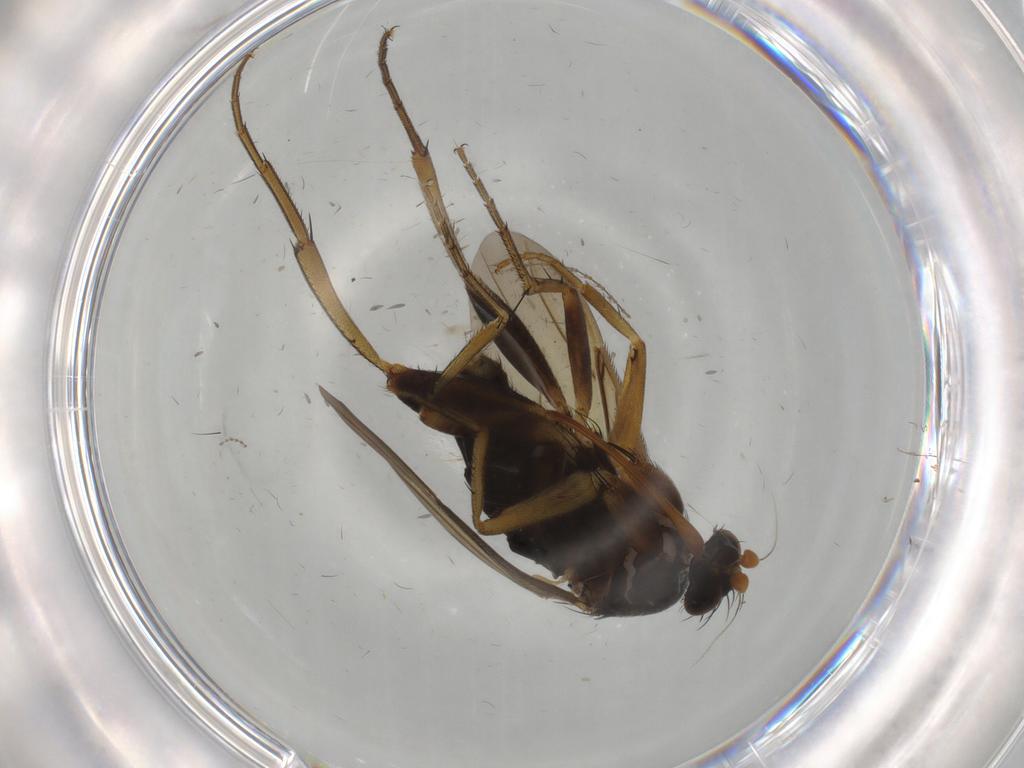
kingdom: Animalia
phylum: Arthropoda
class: Insecta
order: Diptera
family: Phoridae
